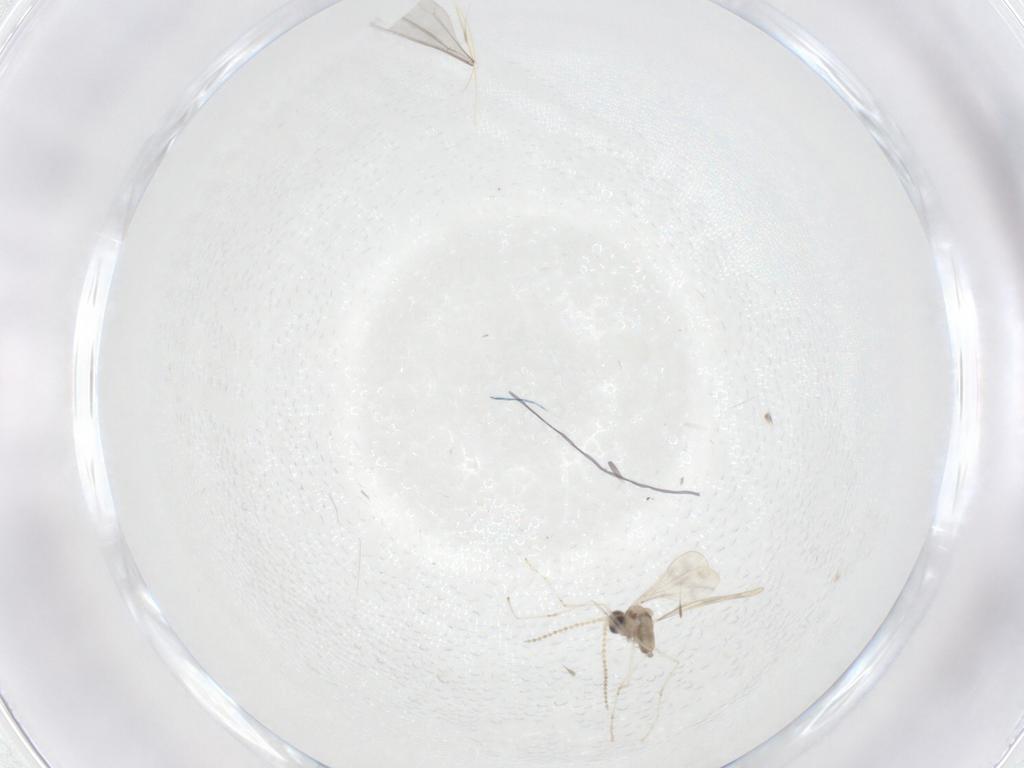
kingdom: Animalia
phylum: Arthropoda
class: Insecta
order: Diptera
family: Cecidomyiidae
